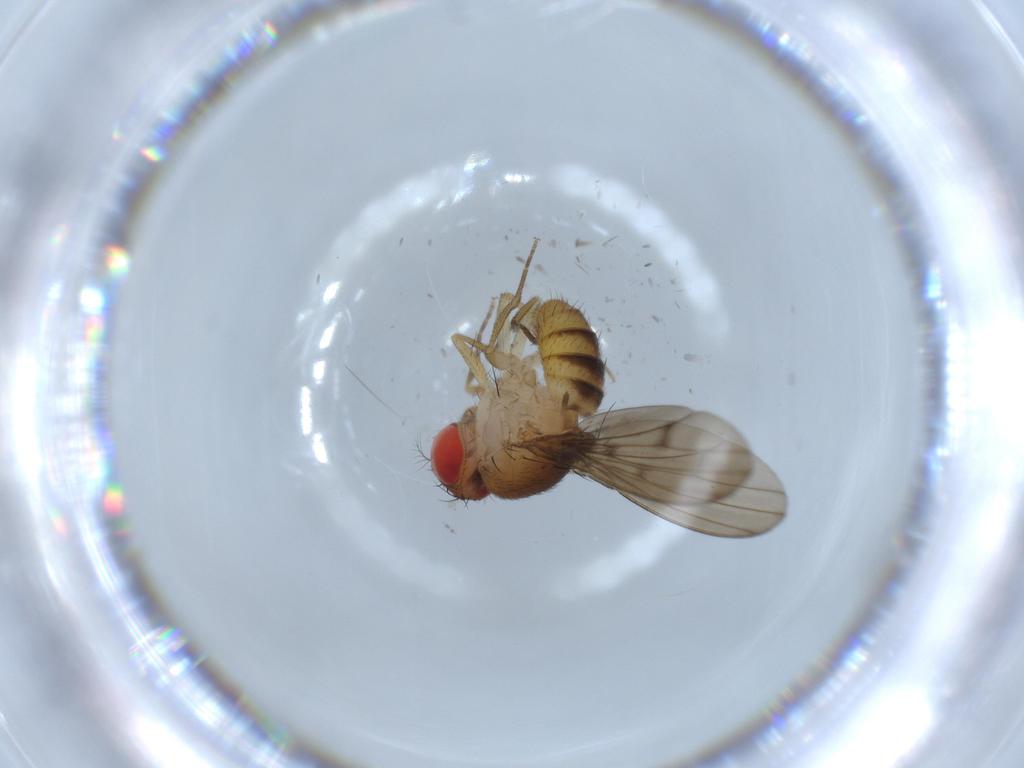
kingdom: Animalia
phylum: Arthropoda
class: Insecta
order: Diptera
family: Drosophilidae
